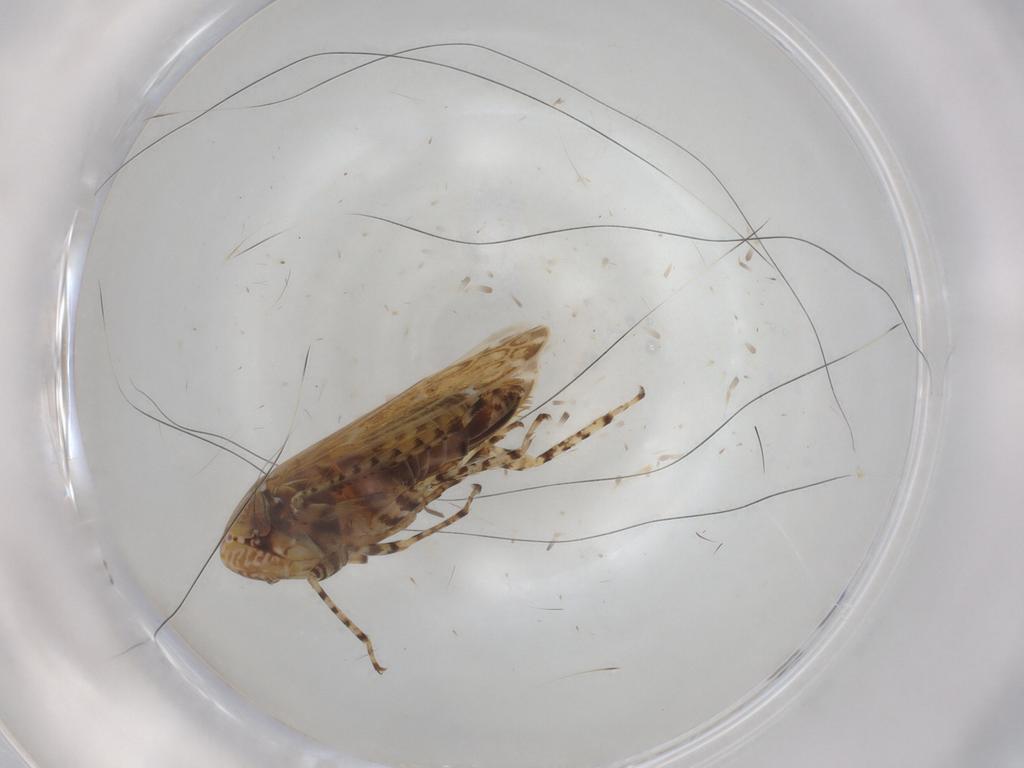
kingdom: Animalia
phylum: Arthropoda
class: Insecta
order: Hemiptera
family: Cicadellidae
